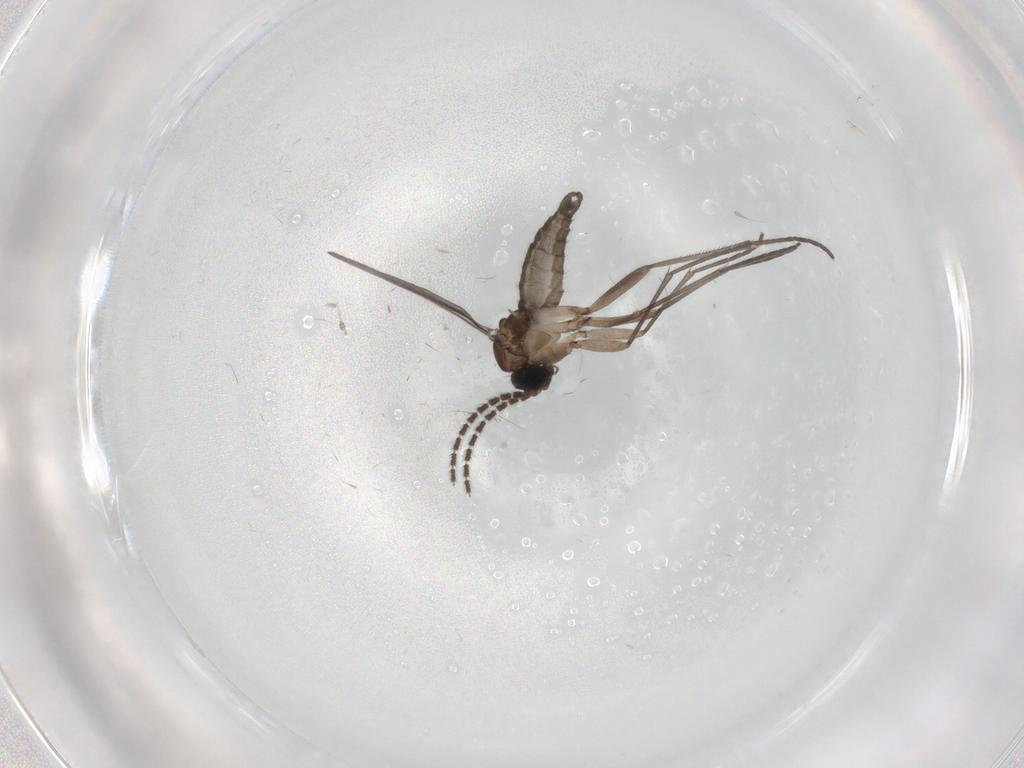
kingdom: Animalia
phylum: Arthropoda
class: Insecta
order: Diptera
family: Sciaridae
